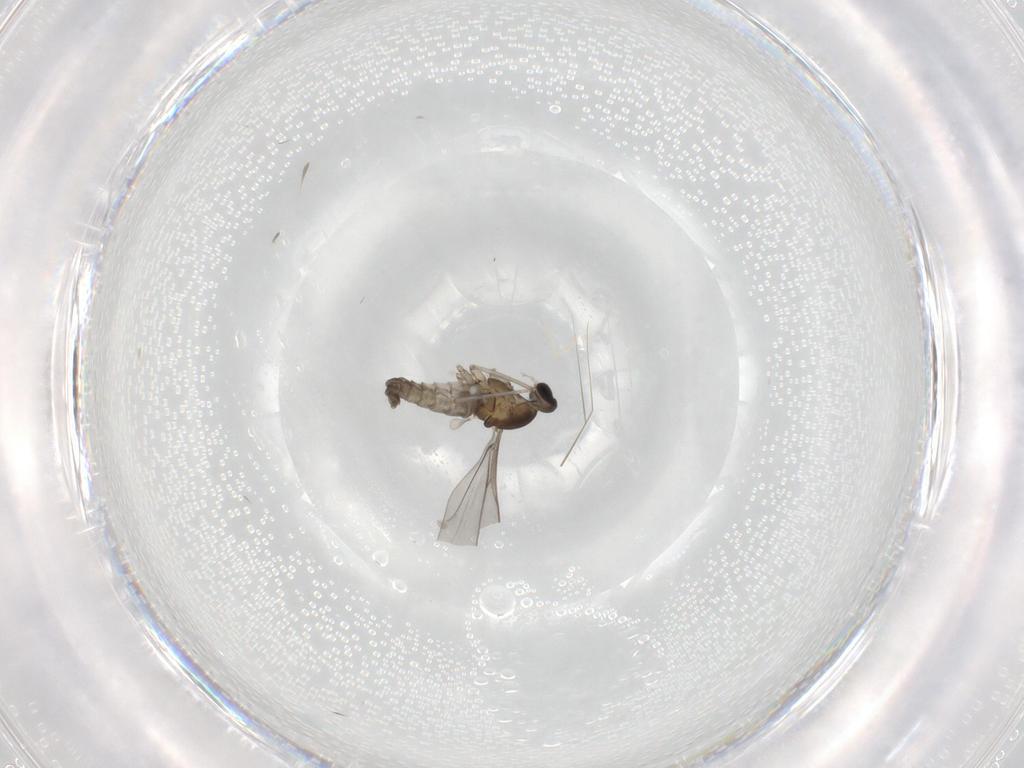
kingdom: Animalia
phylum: Arthropoda
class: Insecta
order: Diptera
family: Cecidomyiidae
